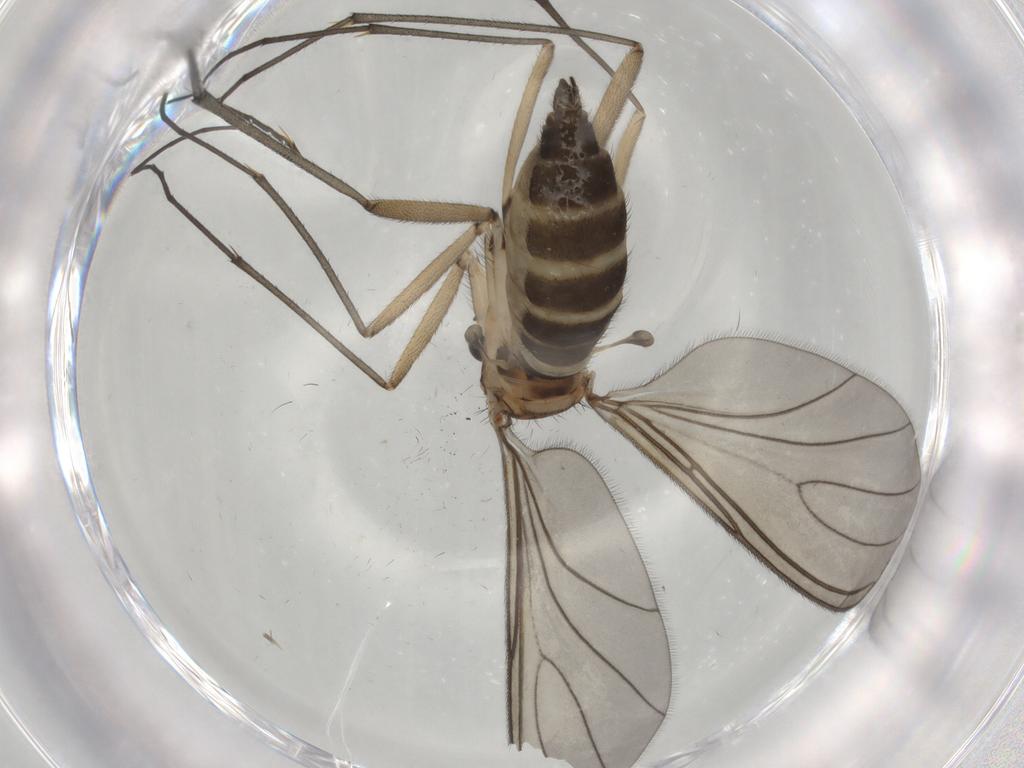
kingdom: Animalia
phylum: Arthropoda
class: Insecta
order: Diptera
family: Sciaridae
